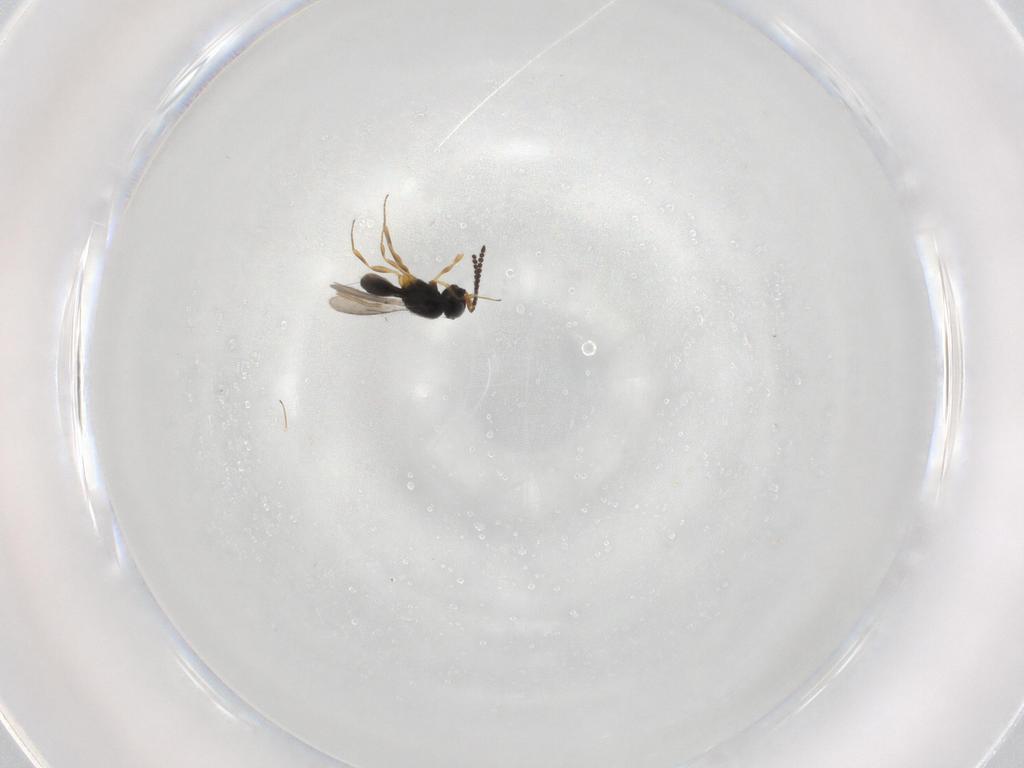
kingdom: Animalia
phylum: Arthropoda
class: Insecta
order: Hymenoptera
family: Scelionidae
